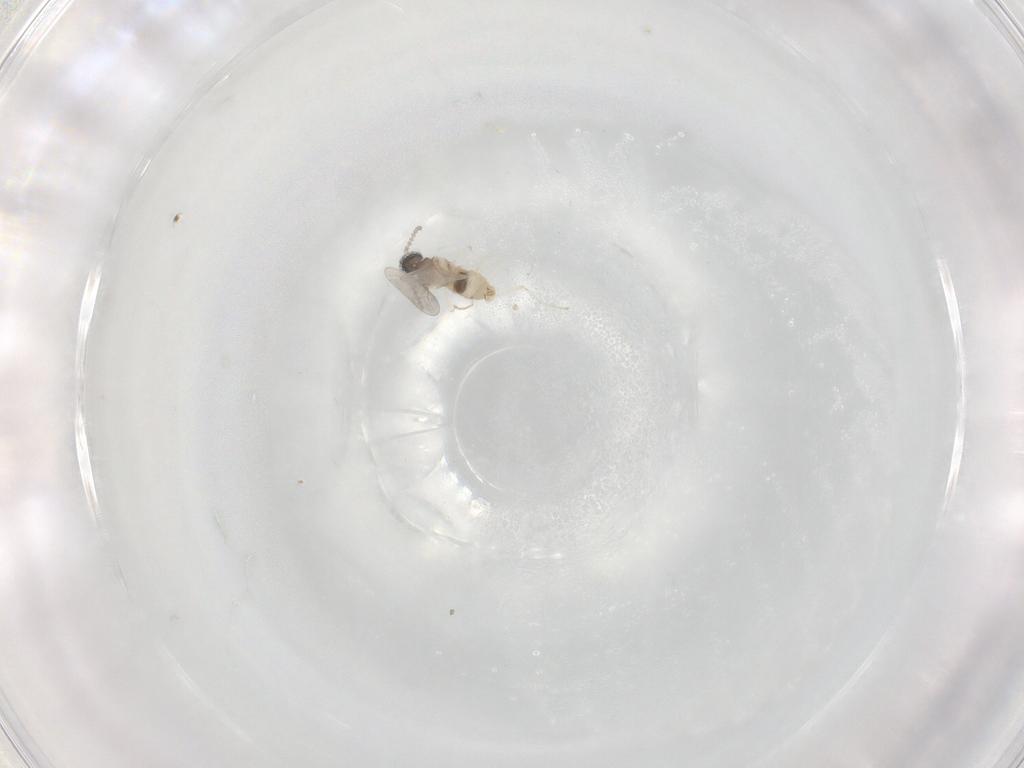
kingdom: Animalia
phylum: Arthropoda
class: Insecta
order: Diptera
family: Cecidomyiidae
